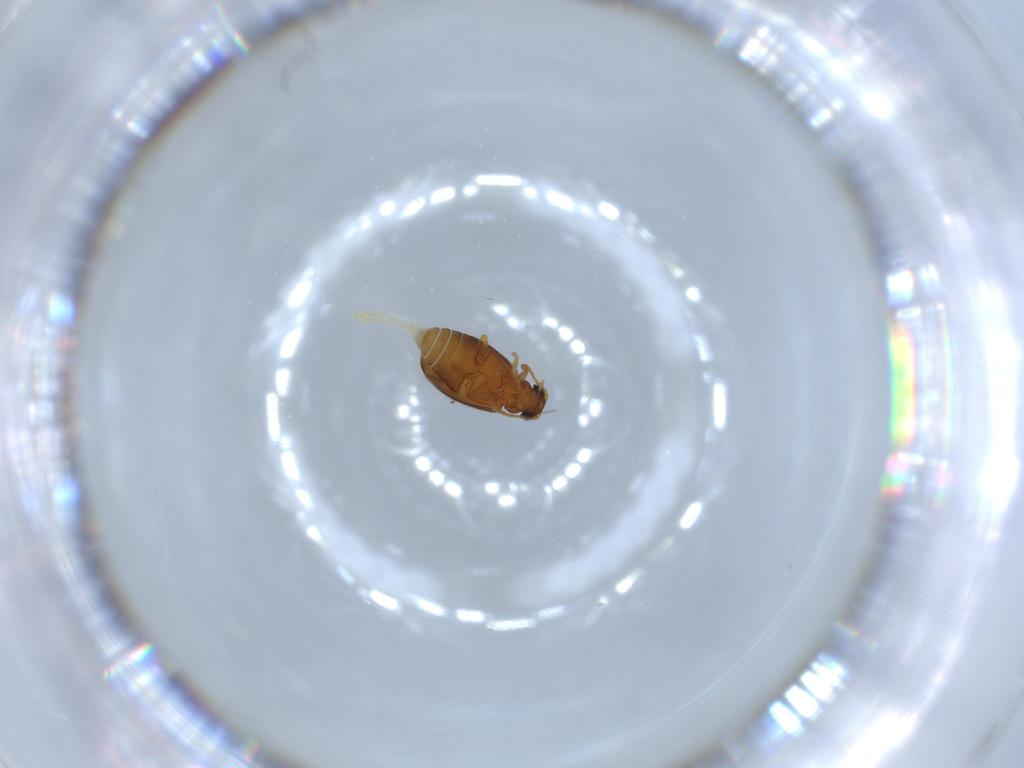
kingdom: Animalia
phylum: Arthropoda
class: Insecta
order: Coleoptera
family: Aderidae
